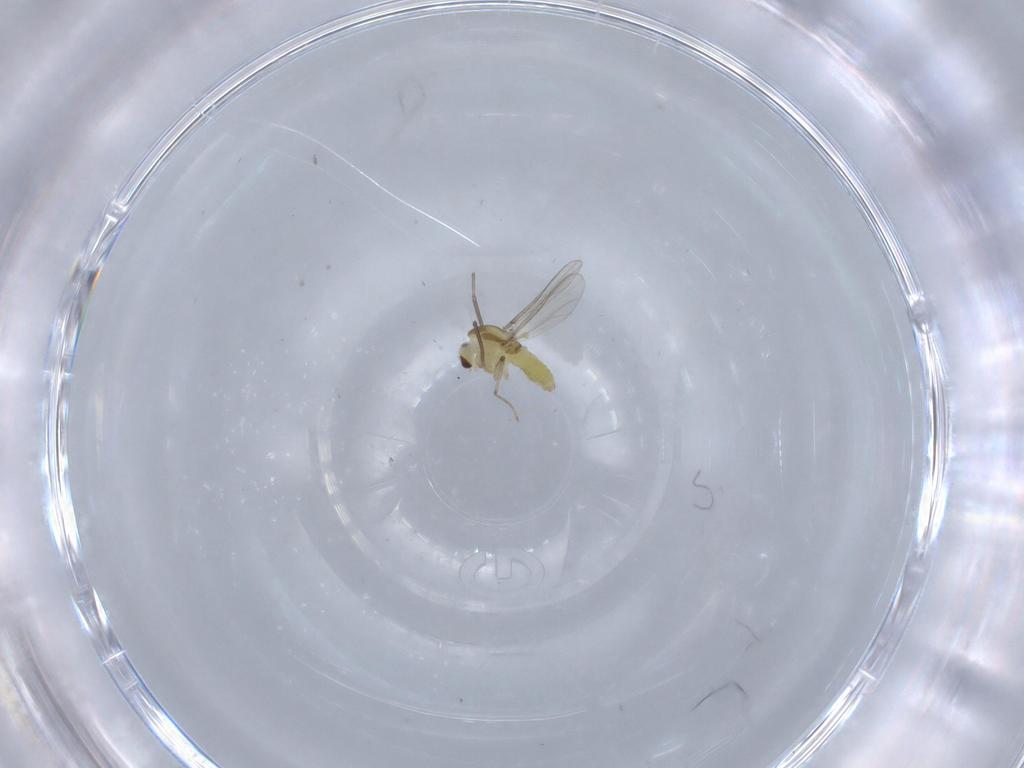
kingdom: Animalia
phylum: Arthropoda
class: Insecta
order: Diptera
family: Chironomidae
